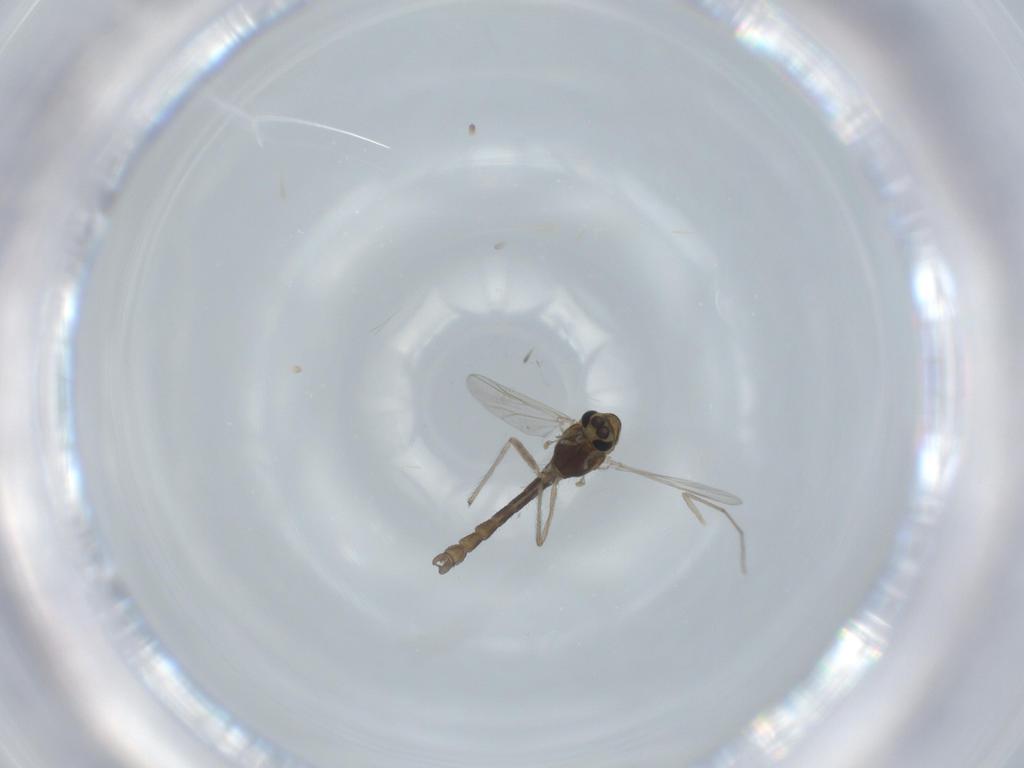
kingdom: Animalia
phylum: Arthropoda
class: Insecta
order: Diptera
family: Chironomidae
